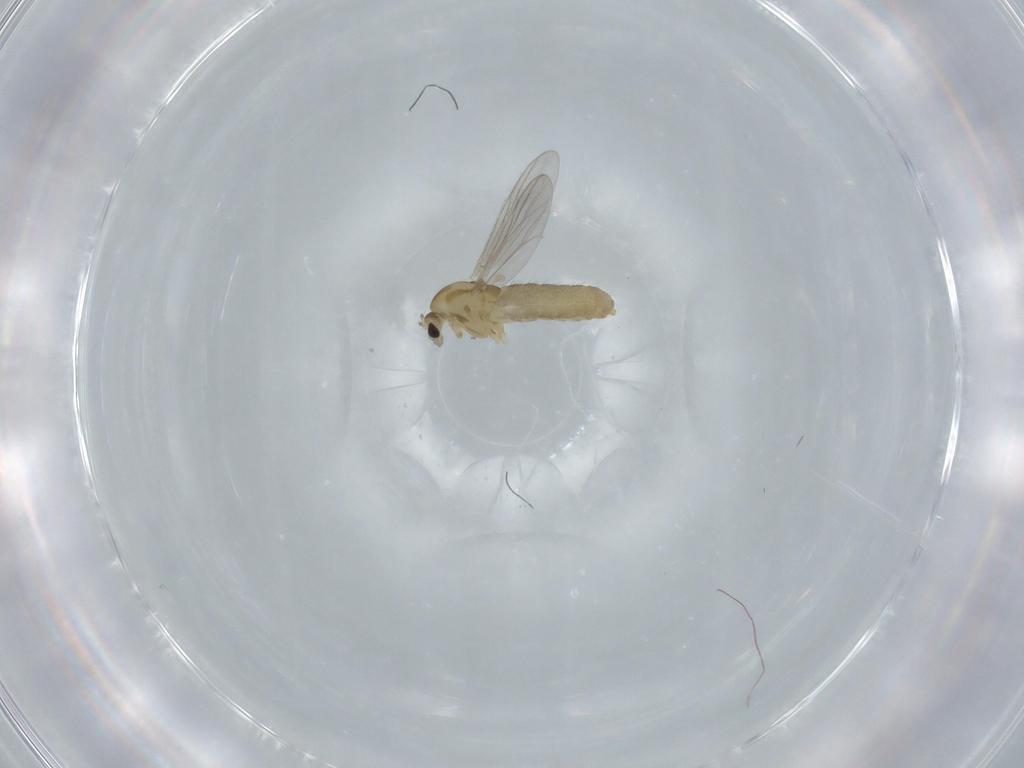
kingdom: Animalia
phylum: Arthropoda
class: Insecta
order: Diptera
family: Chironomidae
